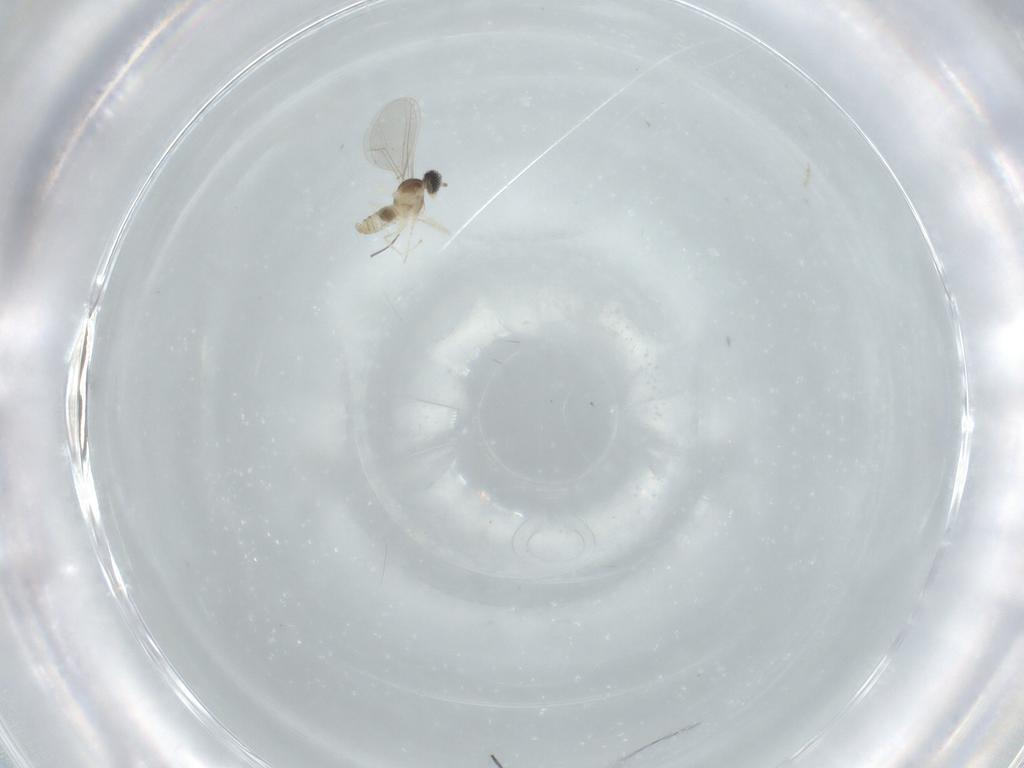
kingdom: Animalia
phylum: Arthropoda
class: Insecta
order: Diptera
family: Cecidomyiidae
